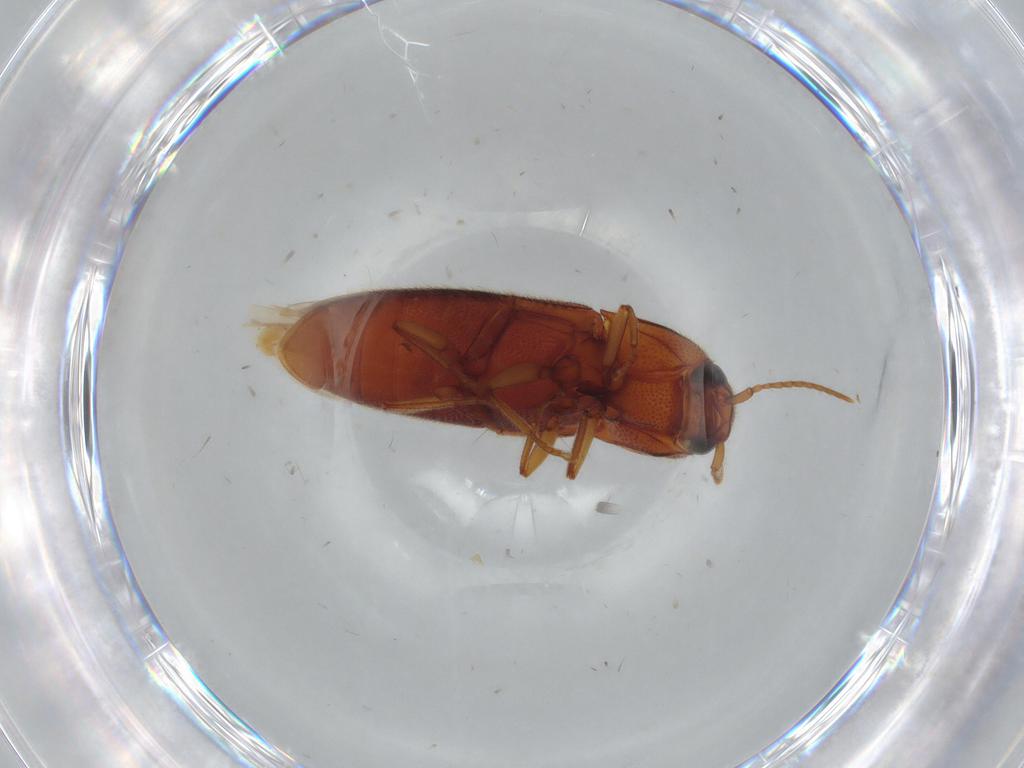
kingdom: Animalia
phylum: Arthropoda
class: Insecta
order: Coleoptera
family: Elateridae
